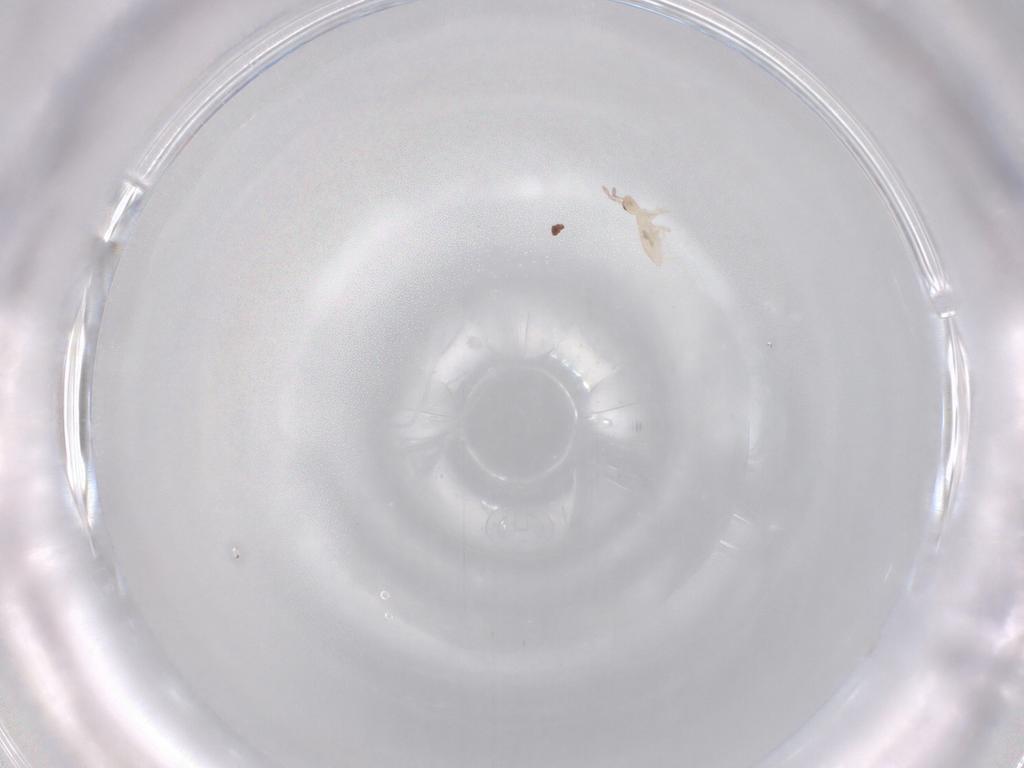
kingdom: Animalia
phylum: Arthropoda
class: Collembola
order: Entomobryomorpha
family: Entomobryidae
